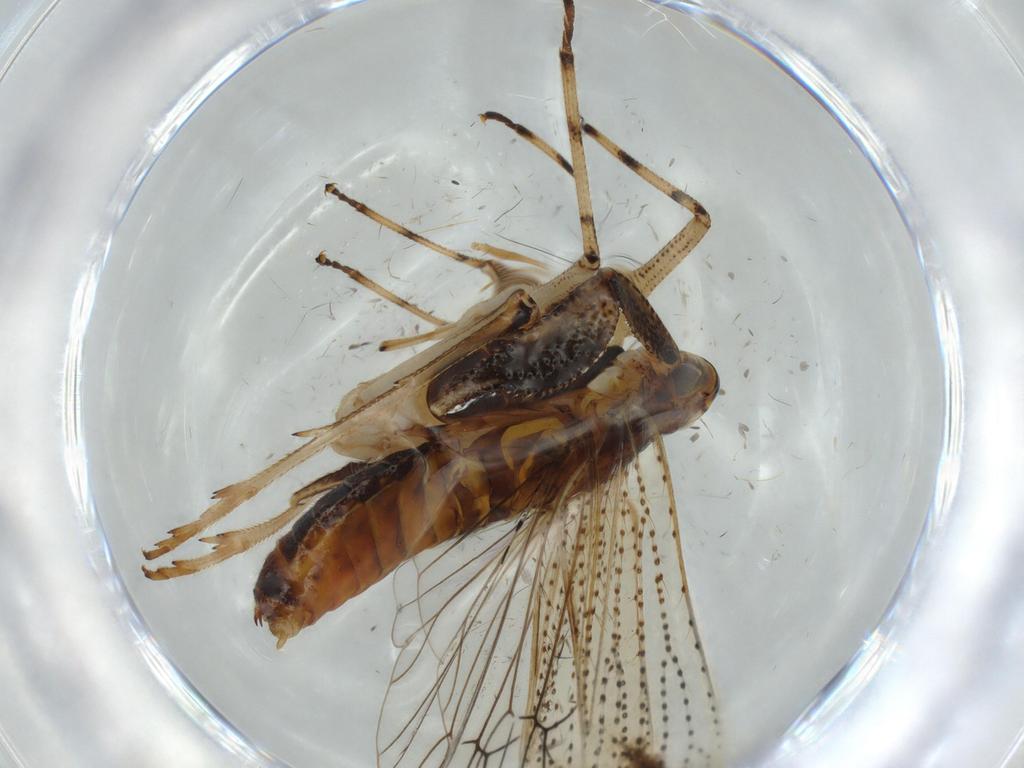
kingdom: Animalia
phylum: Arthropoda
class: Insecta
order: Hemiptera
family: Delphacidae
